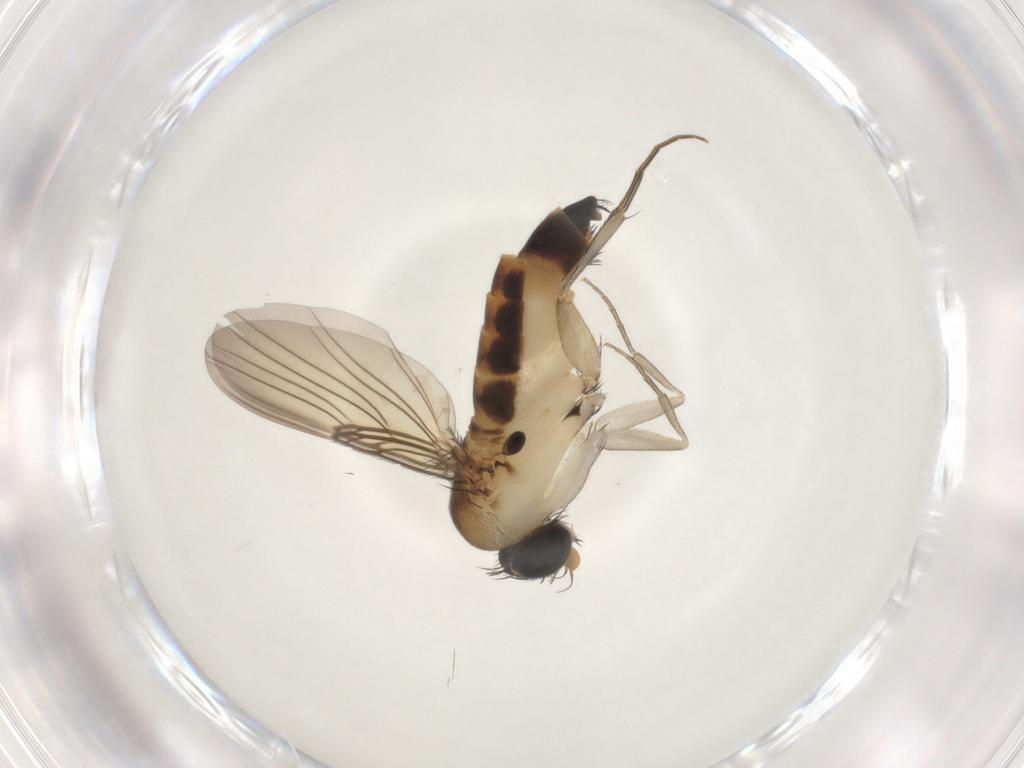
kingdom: Animalia
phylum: Arthropoda
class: Insecta
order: Diptera
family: Phoridae
